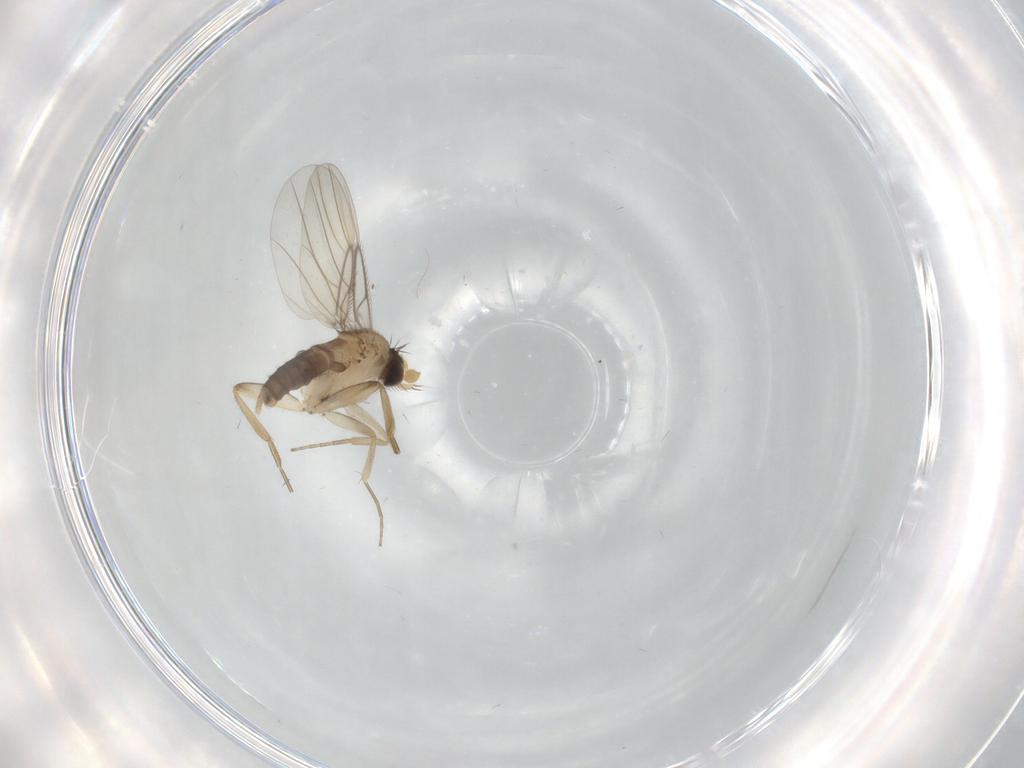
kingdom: Animalia
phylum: Arthropoda
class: Insecta
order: Diptera
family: Phoridae
